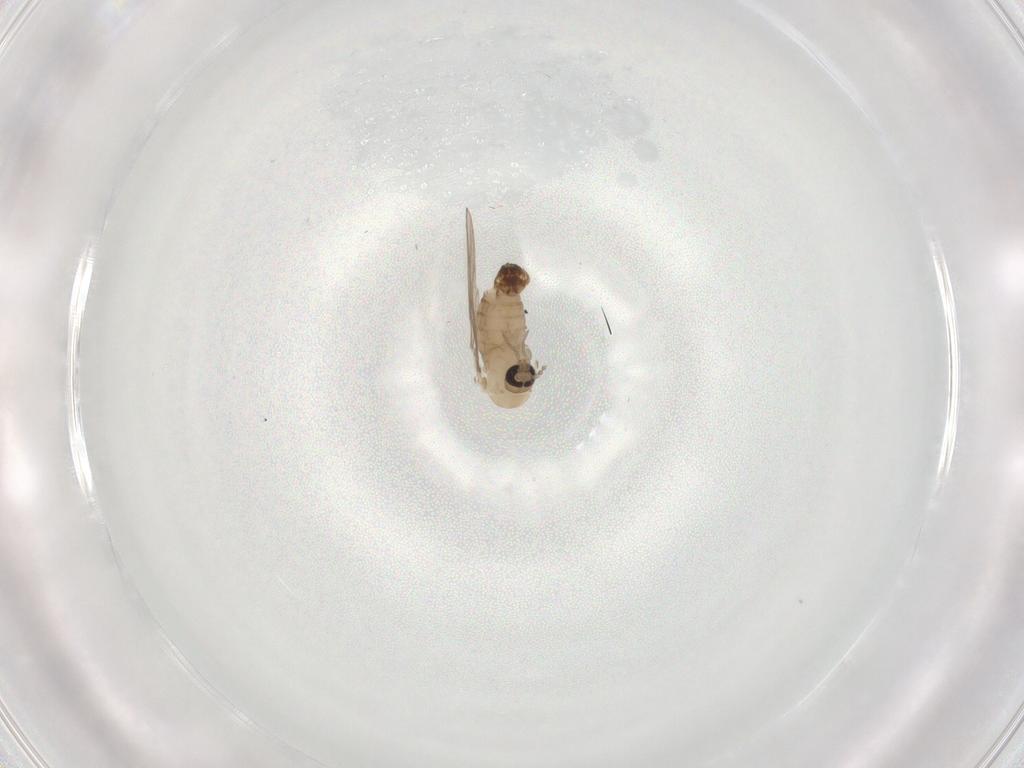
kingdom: Animalia
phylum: Arthropoda
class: Insecta
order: Diptera
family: Psychodidae
